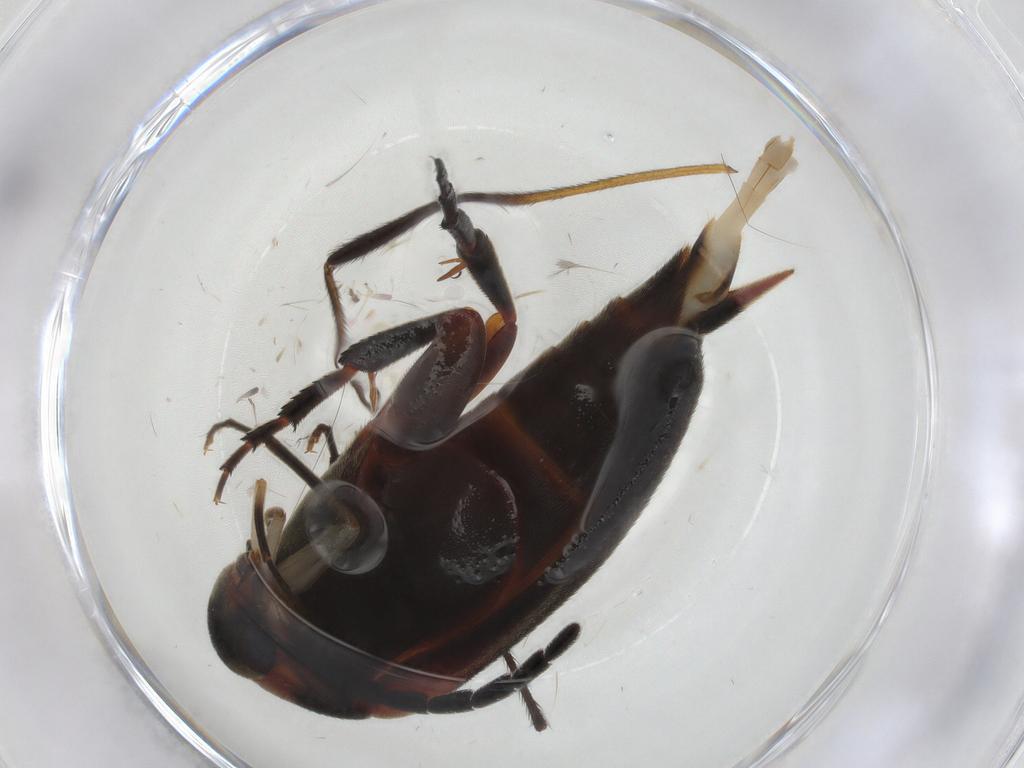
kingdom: Animalia
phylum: Arthropoda
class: Insecta
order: Coleoptera
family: Mordellidae
